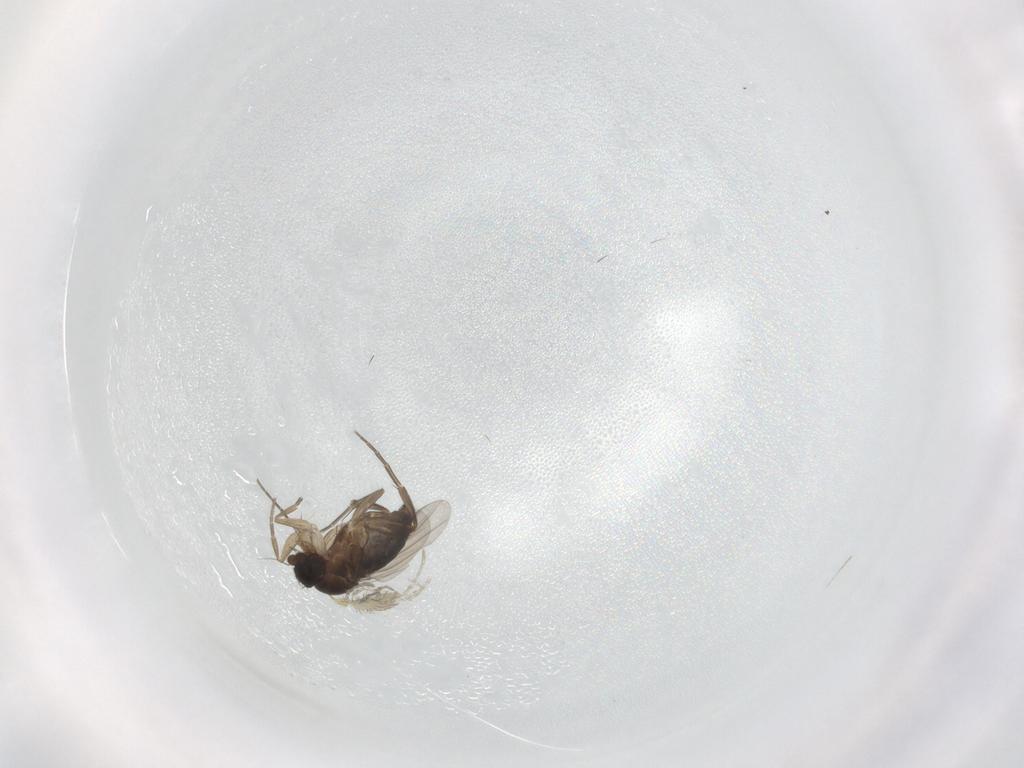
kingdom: Animalia
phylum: Arthropoda
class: Insecta
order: Diptera
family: Phoridae
